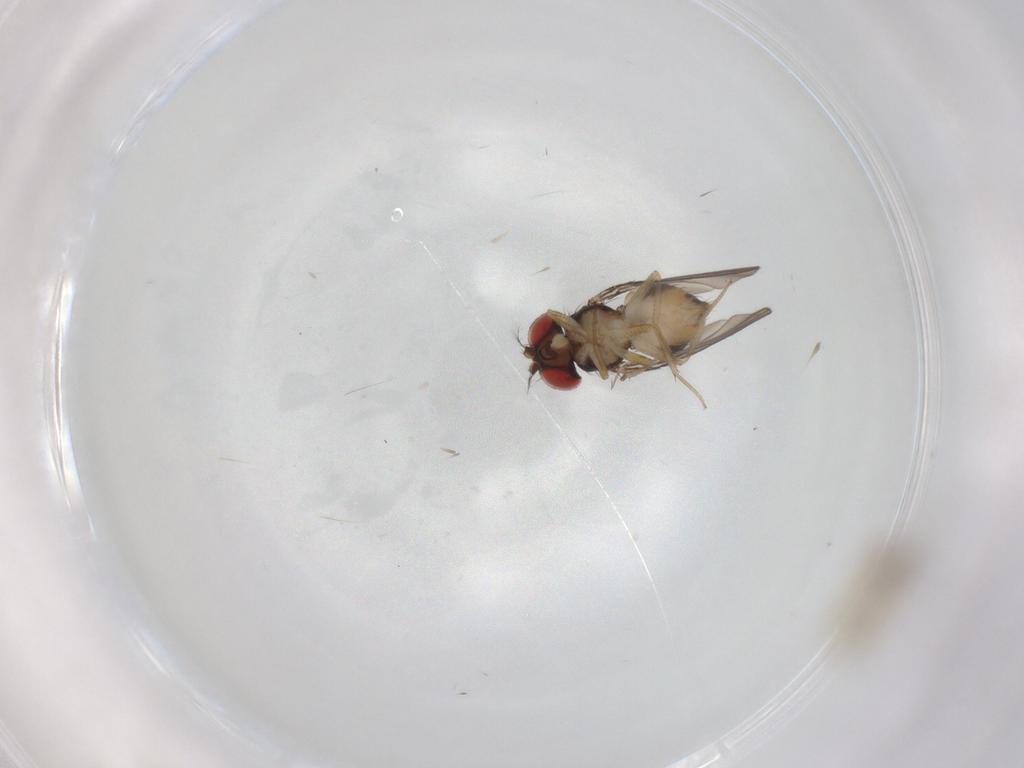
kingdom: Animalia
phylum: Arthropoda
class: Insecta
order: Diptera
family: Drosophilidae
